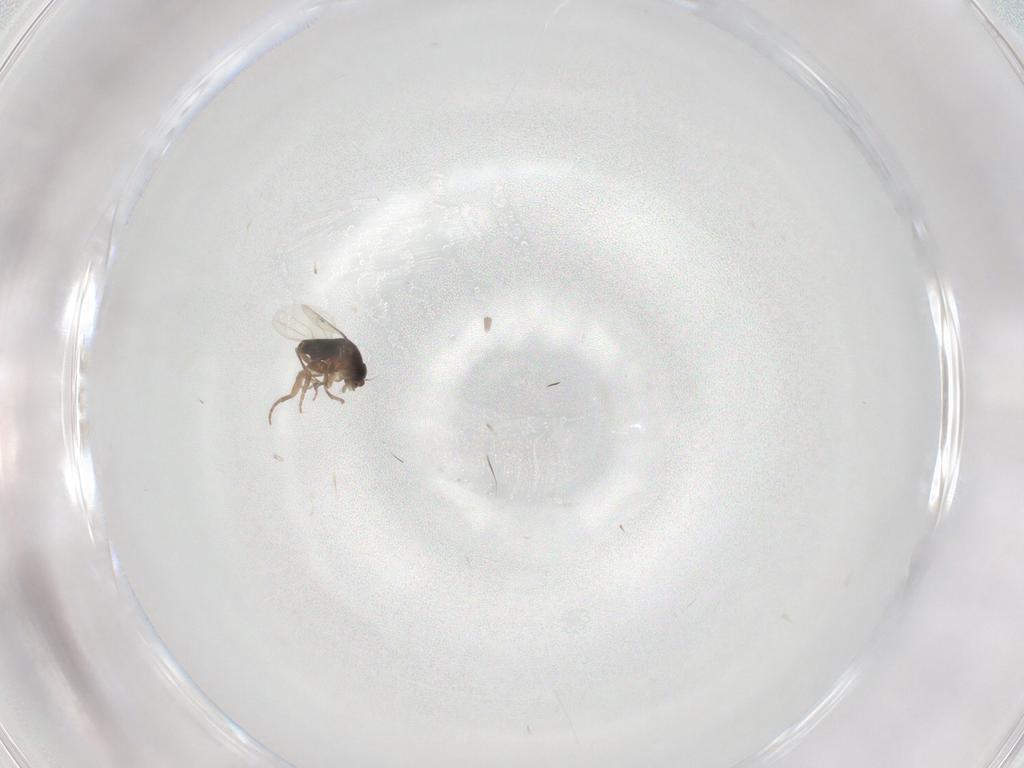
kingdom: Animalia
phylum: Arthropoda
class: Insecta
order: Diptera
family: Phoridae
